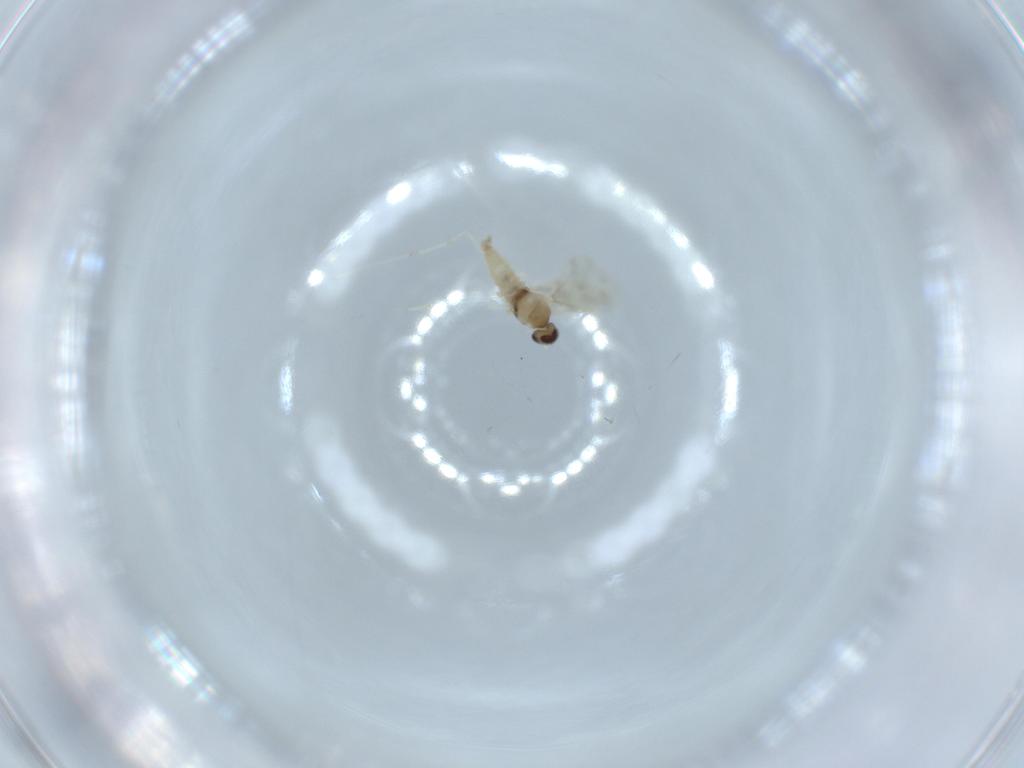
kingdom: Animalia
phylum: Arthropoda
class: Insecta
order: Diptera
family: Cecidomyiidae
